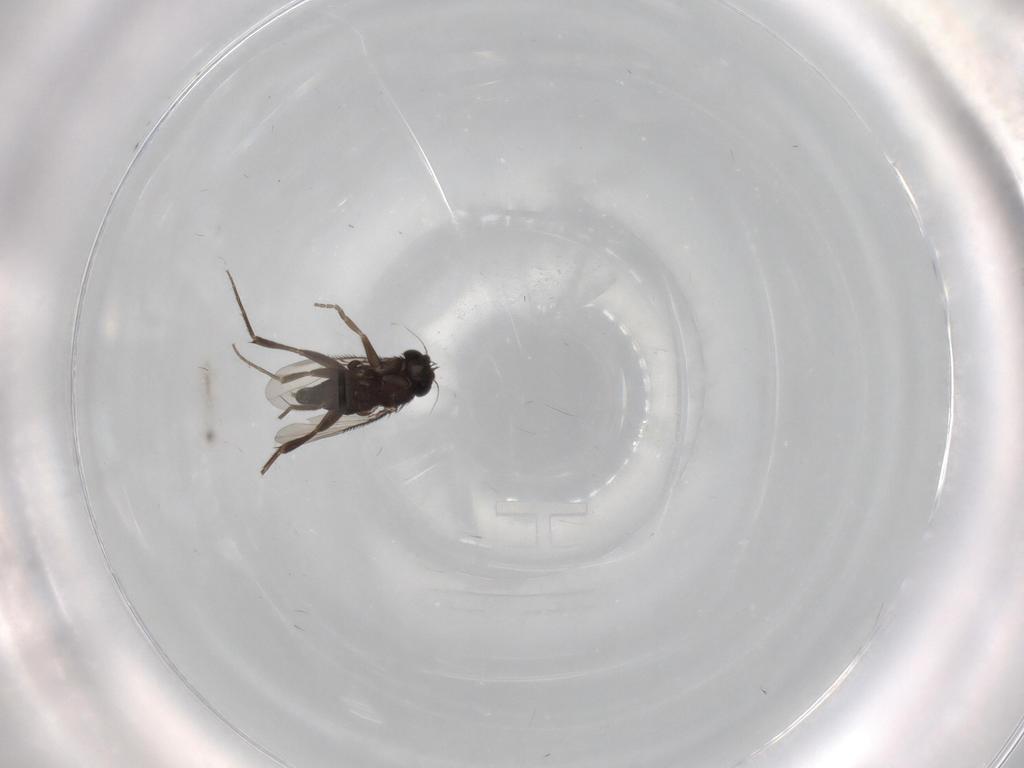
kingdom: Animalia
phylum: Arthropoda
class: Insecta
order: Diptera
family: Phoridae
